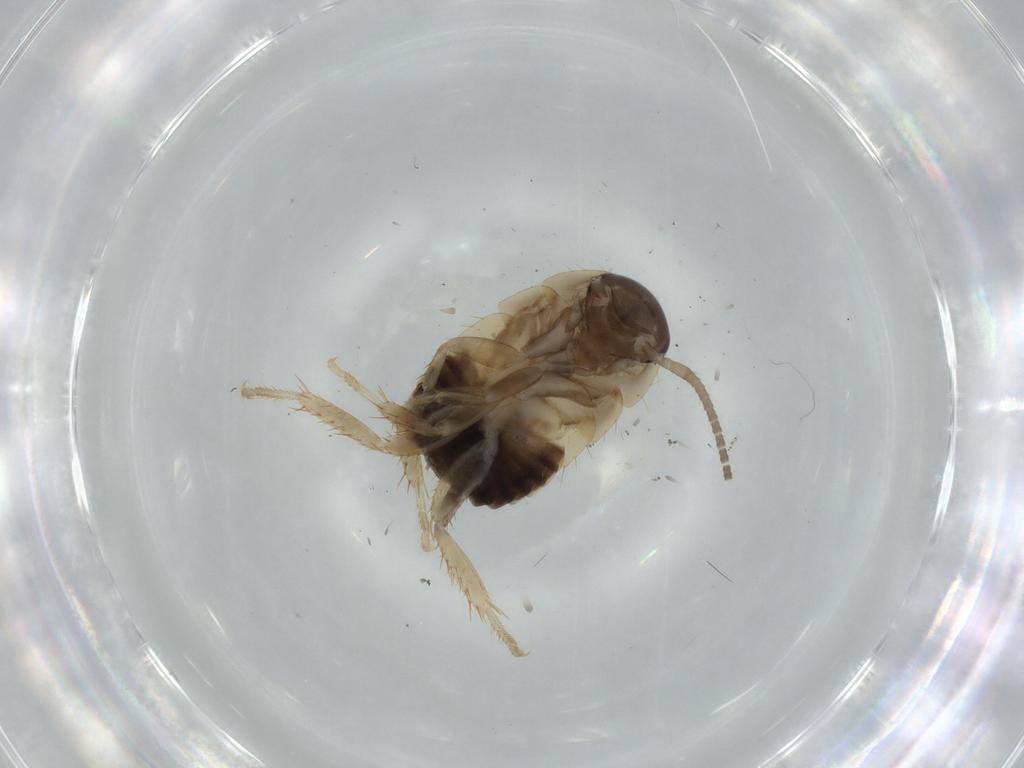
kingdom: Animalia
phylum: Arthropoda
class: Insecta
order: Blattodea
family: Ectobiidae
